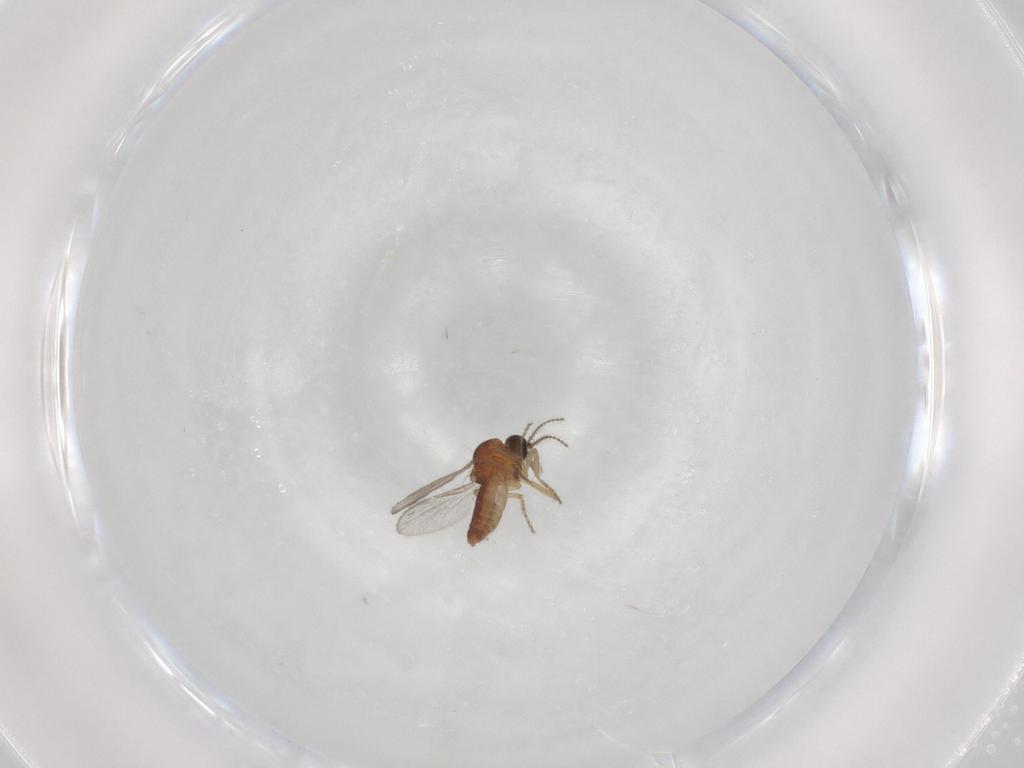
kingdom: Animalia
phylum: Arthropoda
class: Insecta
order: Diptera
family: Ceratopogonidae
